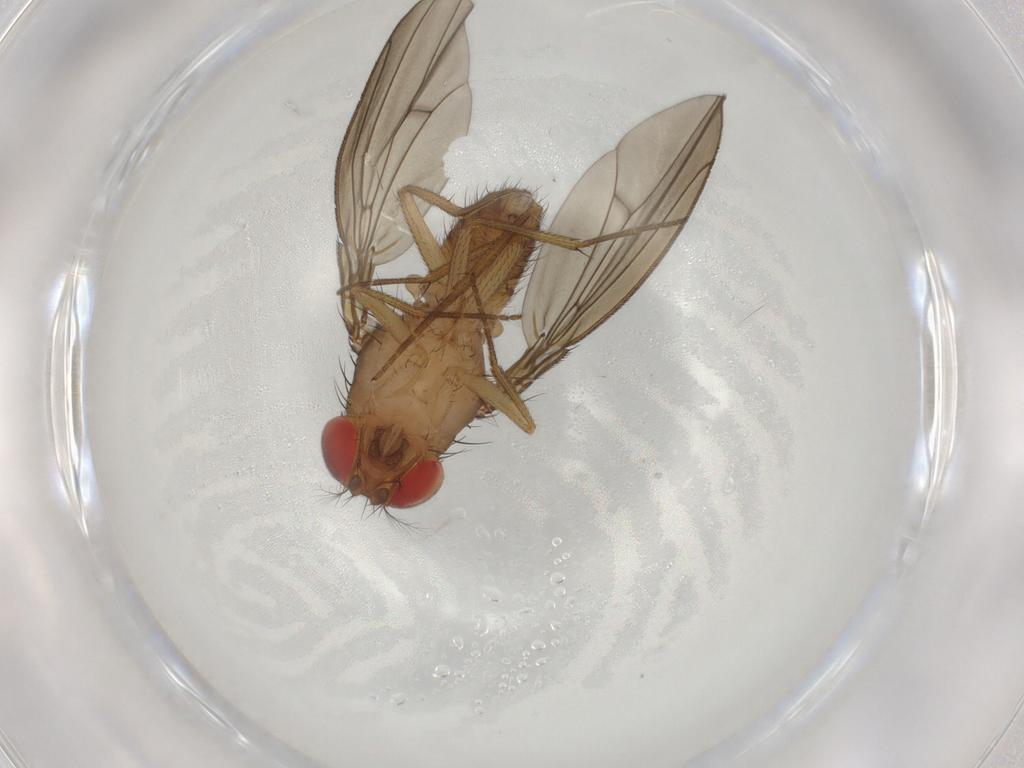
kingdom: Animalia
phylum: Arthropoda
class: Insecta
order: Diptera
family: Drosophilidae
